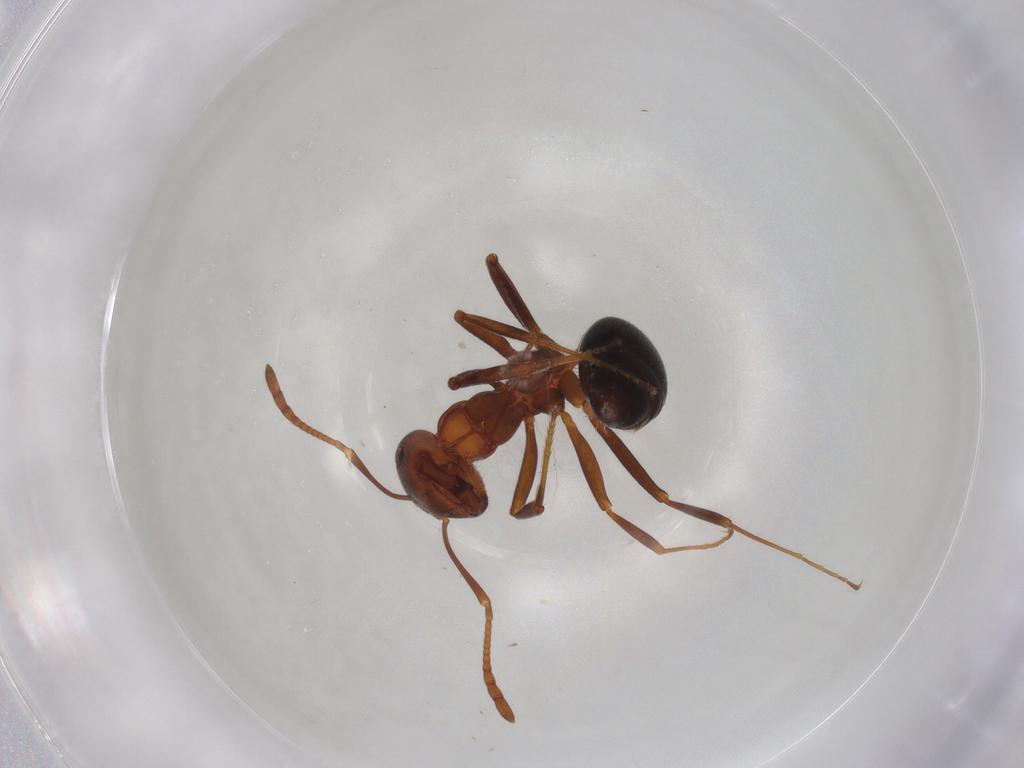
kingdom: Animalia
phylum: Arthropoda
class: Insecta
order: Hymenoptera
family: Formicidae
